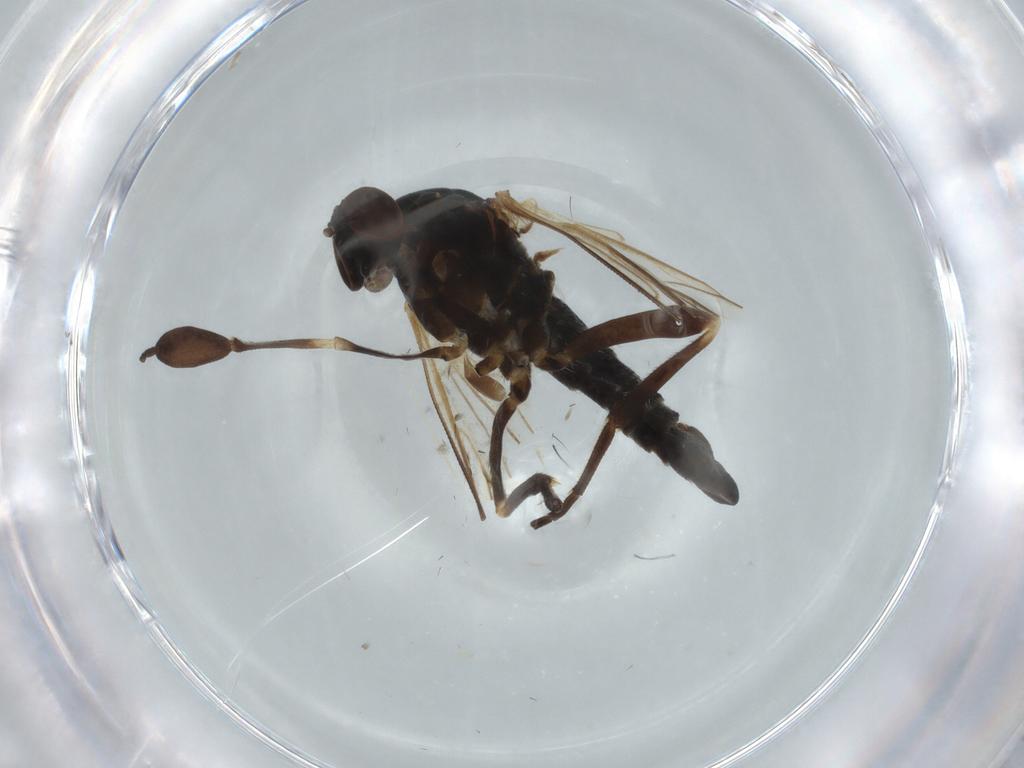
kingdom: Animalia
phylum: Arthropoda
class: Insecta
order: Diptera
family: Empididae
